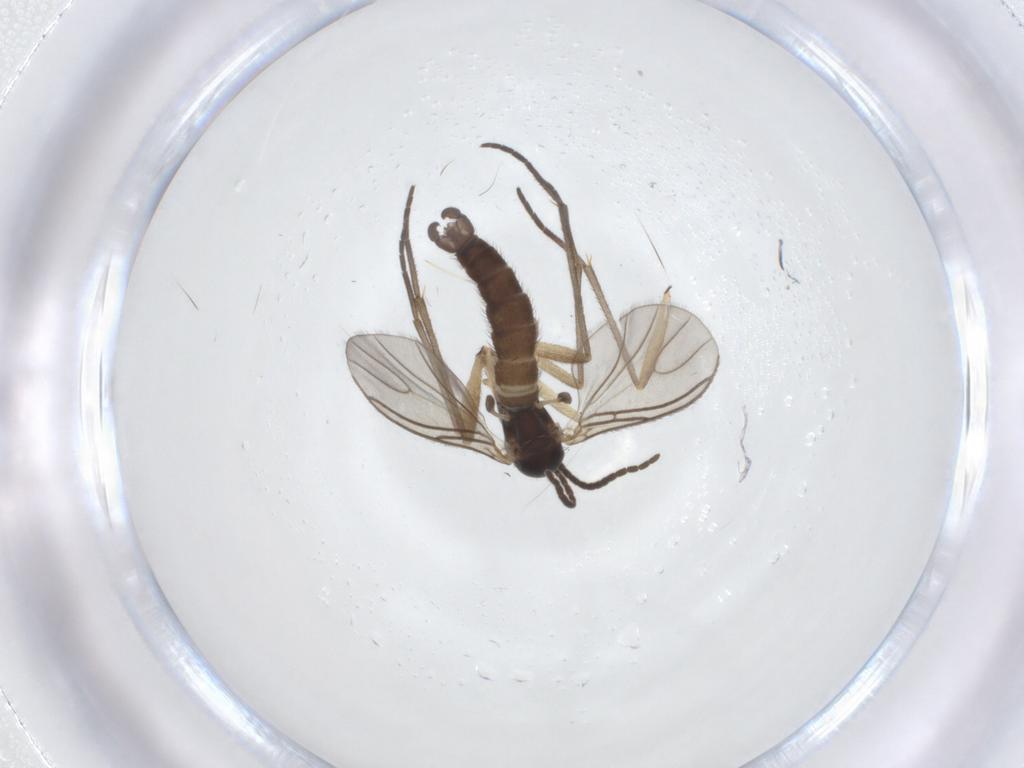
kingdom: Animalia
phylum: Arthropoda
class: Insecta
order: Diptera
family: Sciaridae
